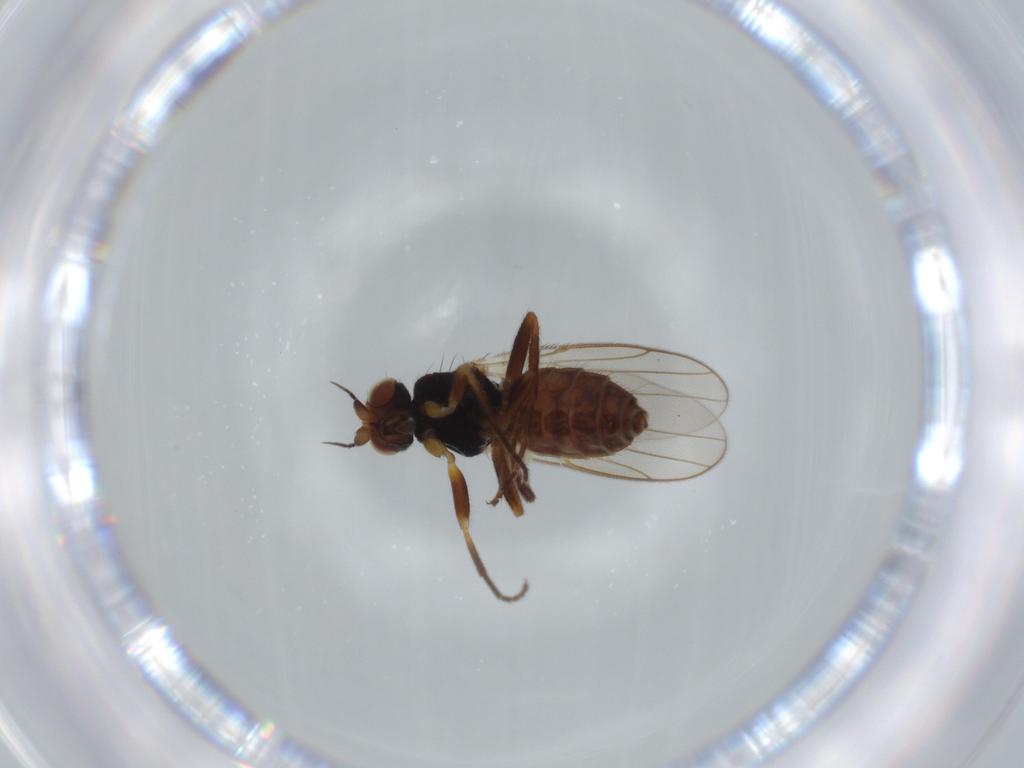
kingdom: Animalia
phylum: Arthropoda
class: Insecta
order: Diptera
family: Chloropidae
